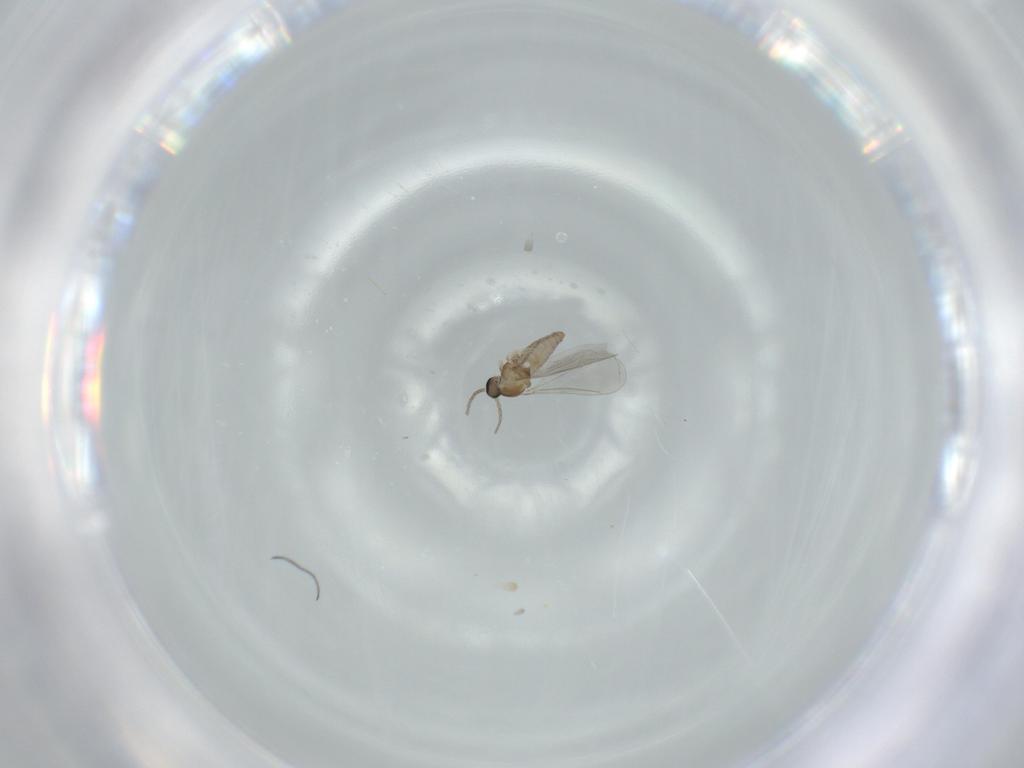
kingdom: Animalia
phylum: Arthropoda
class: Insecta
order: Diptera
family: Cecidomyiidae
